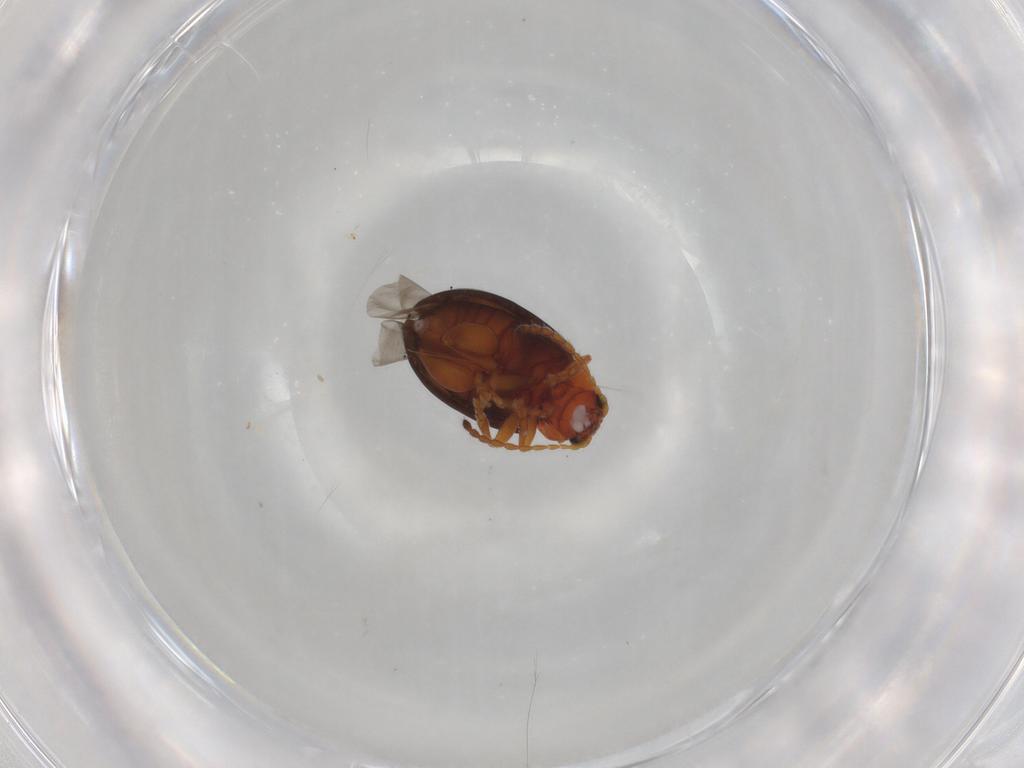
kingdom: Animalia
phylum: Arthropoda
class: Insecta
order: Coleoptera
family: Chrysomelidae
